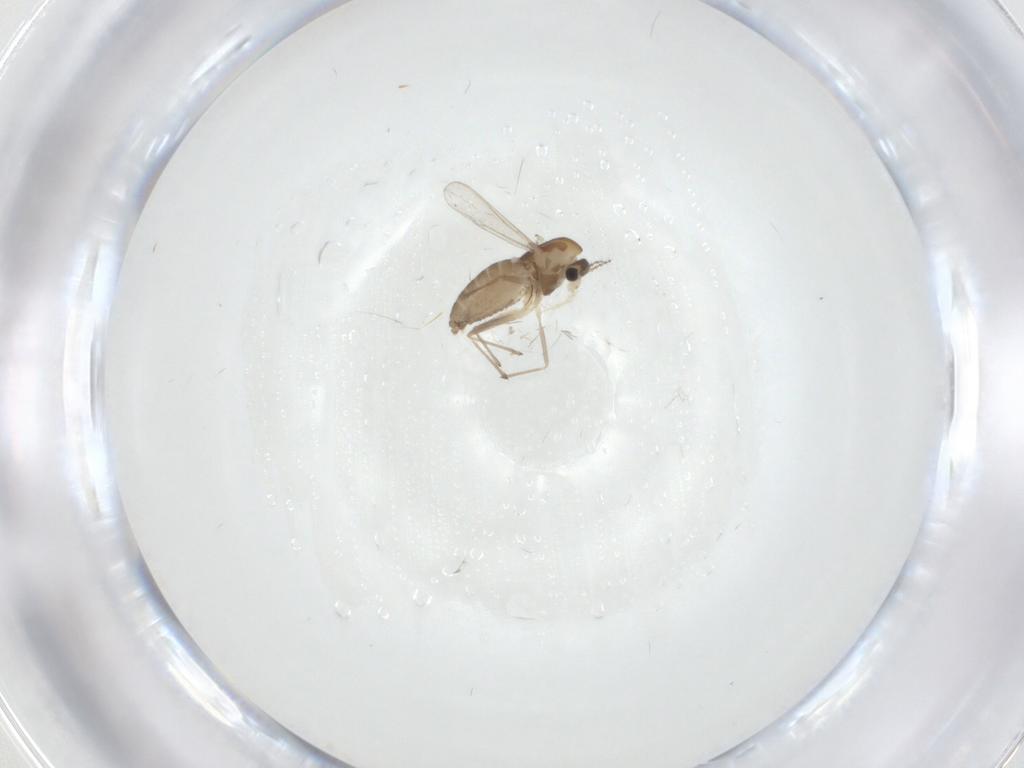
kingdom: Animalia
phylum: Arthropoda
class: Insecta
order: Diptera
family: Chironomidae
